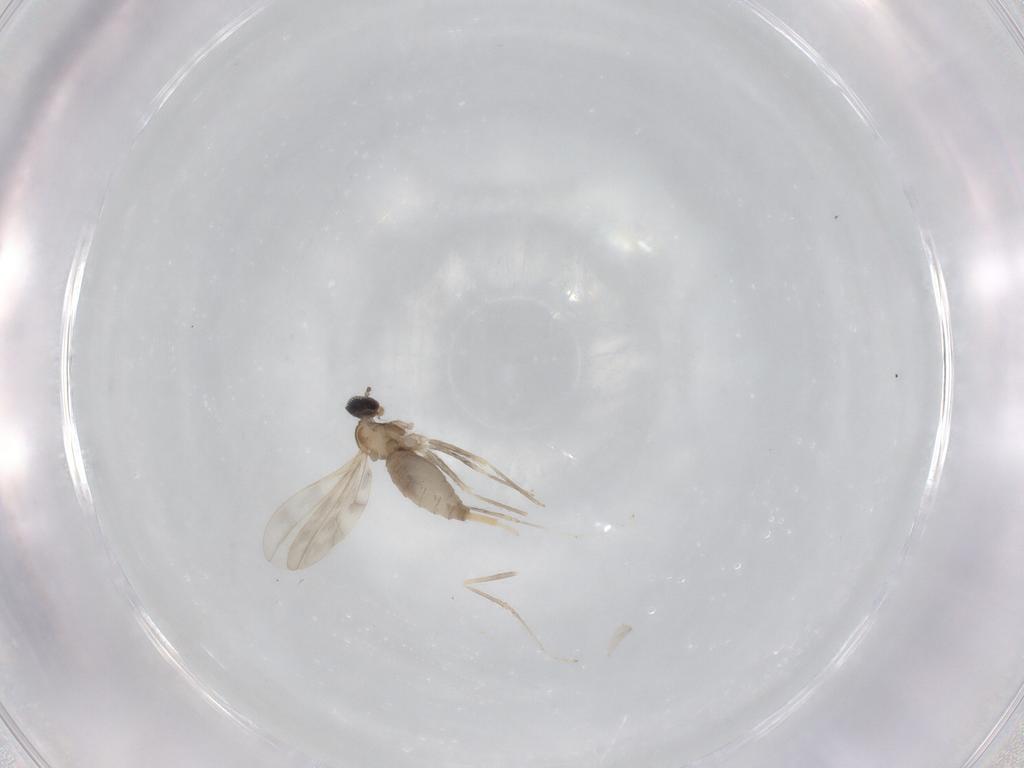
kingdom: Animalia
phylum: Arthropoda
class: Insecta
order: Diptera
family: Cecidomyiidae
